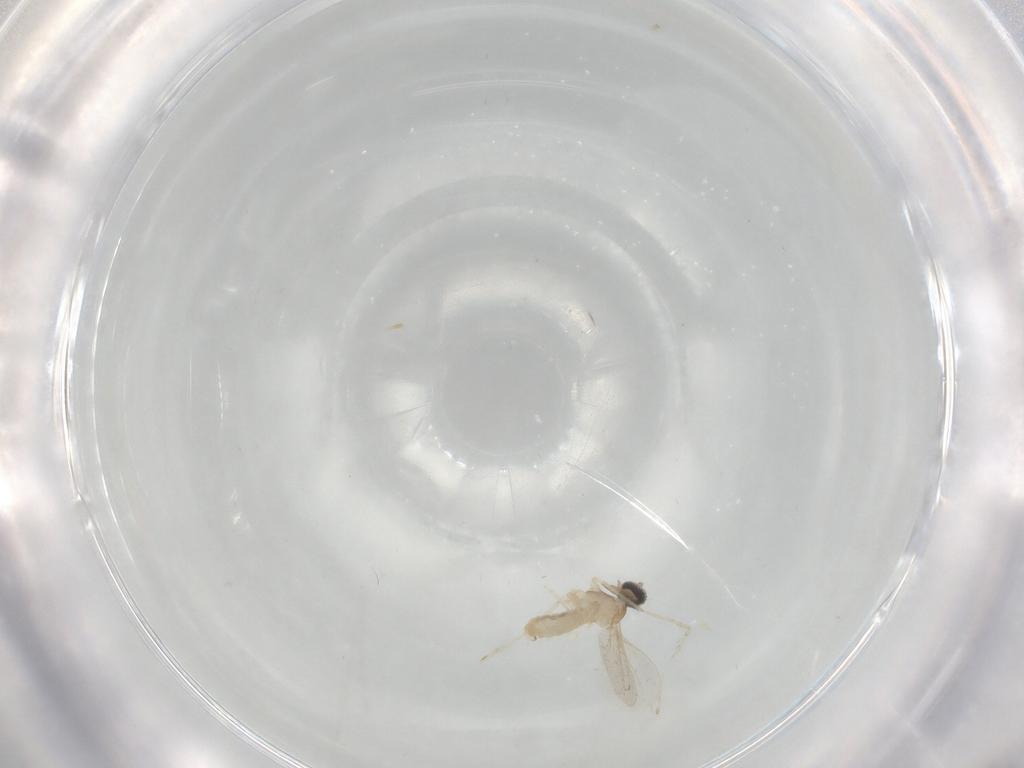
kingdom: Animalia
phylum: Arthropoda
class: Insecta
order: Diptera
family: Cecidomyiidae
